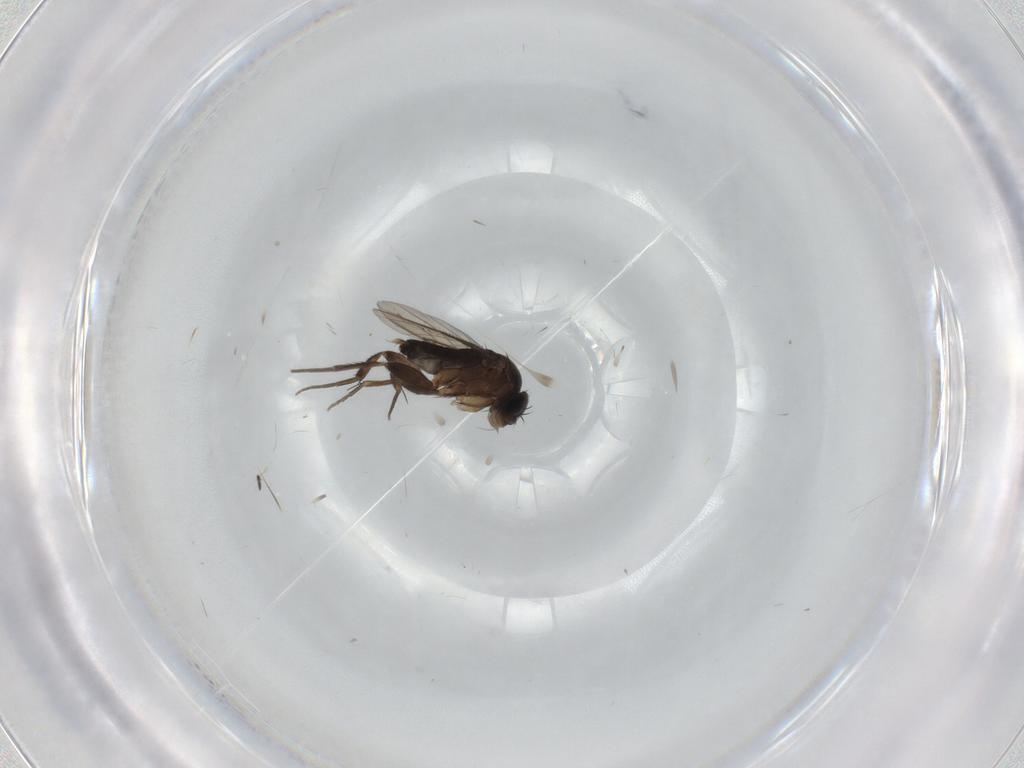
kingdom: Animalia
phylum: Arthropoda
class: Insecta
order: Diptera
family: Phoridae
